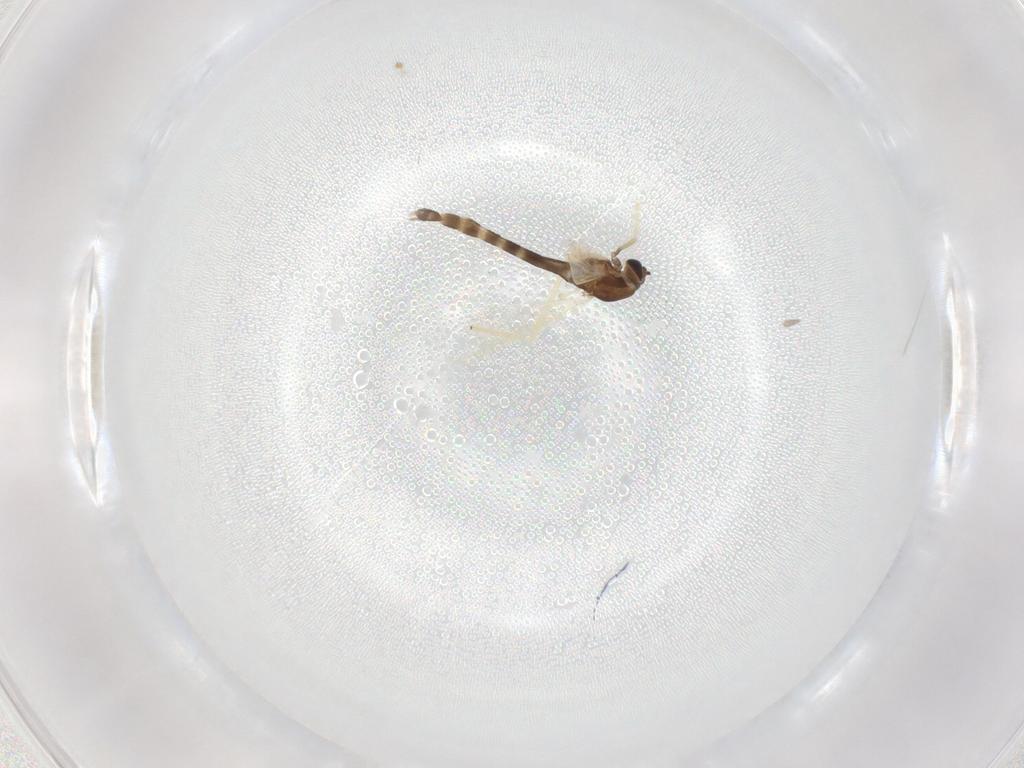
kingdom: Animalia
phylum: Arthropoda
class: Insecta
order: Diptera
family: Chironomidae
